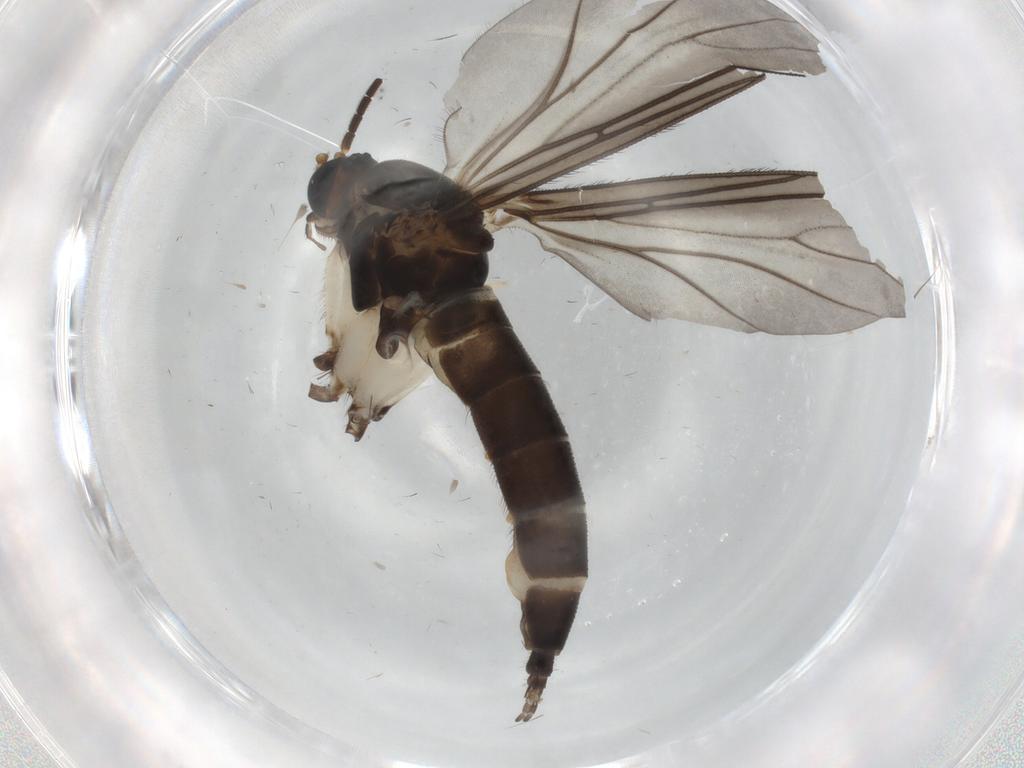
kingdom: Animalia
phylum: Arthropoda
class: Insecta
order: Diptera
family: Sciaridae
